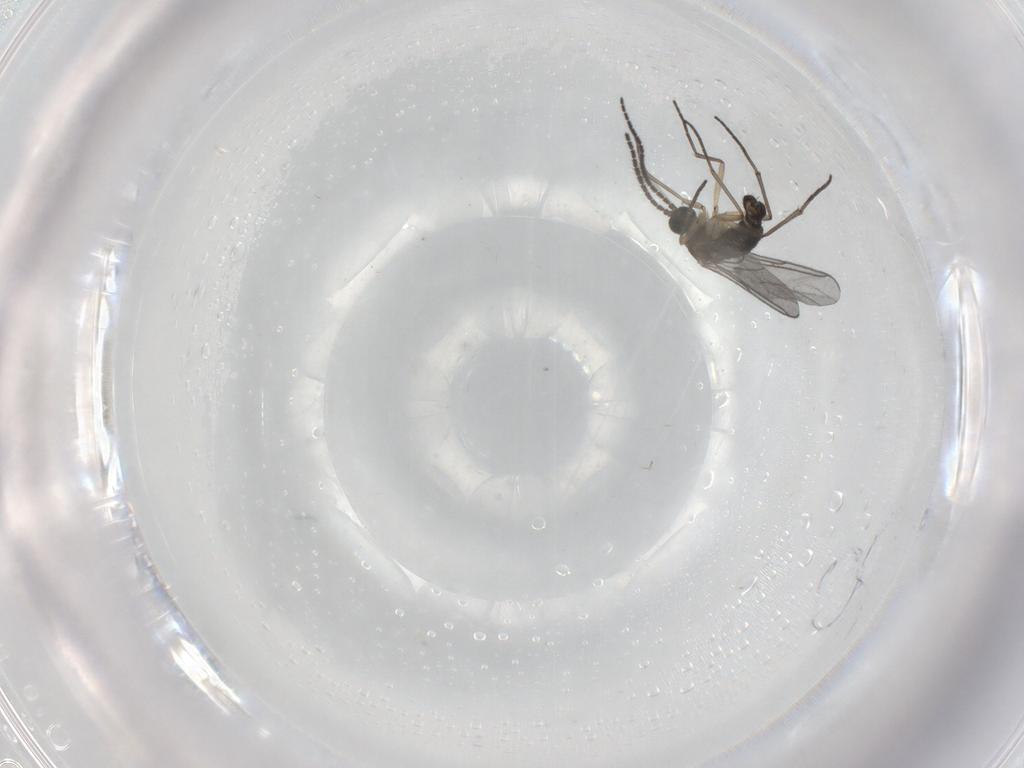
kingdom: Animalia
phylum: Arthropoda
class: Insecta
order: Diptera
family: Sciaridae
